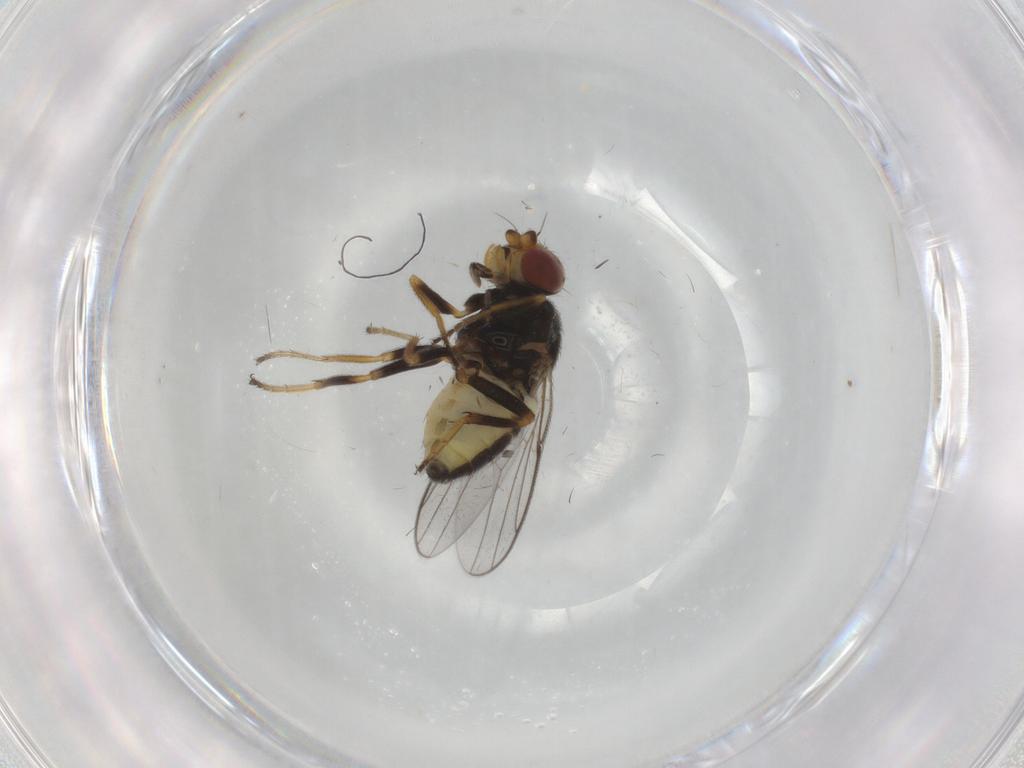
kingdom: Animalia
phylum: Arthropoda
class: Insecta
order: Diptera
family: Chloropidae
